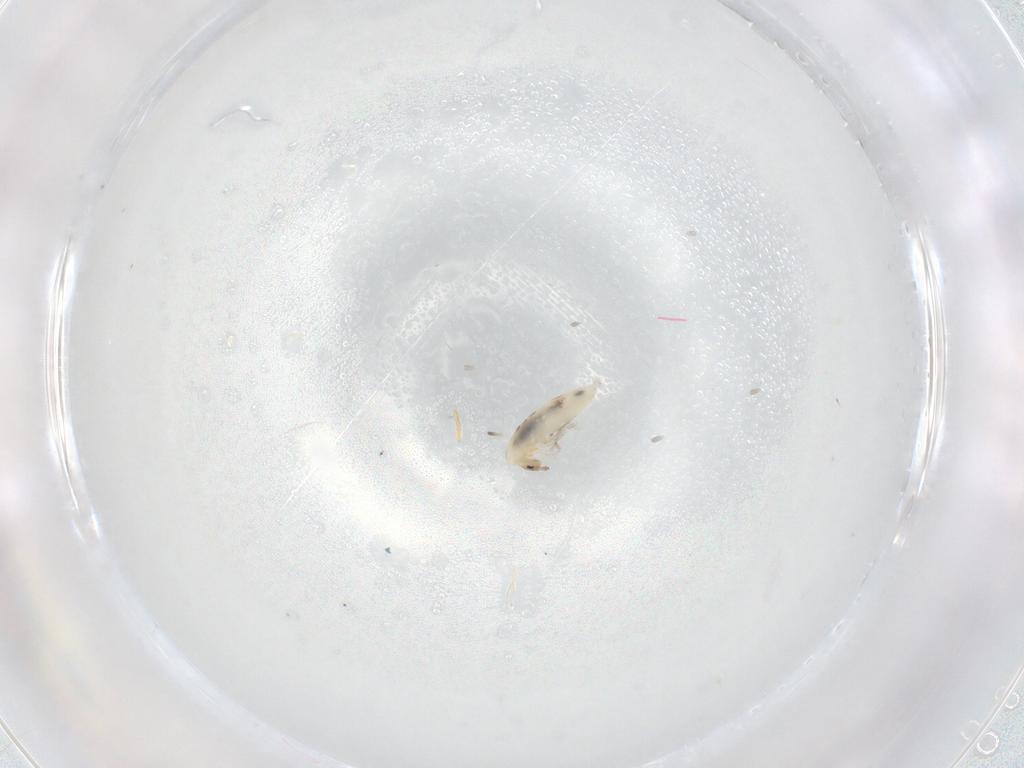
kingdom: Animalia
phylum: Arthropoda
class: Collembola
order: Entomobryomorpha
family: Entomobryidae
